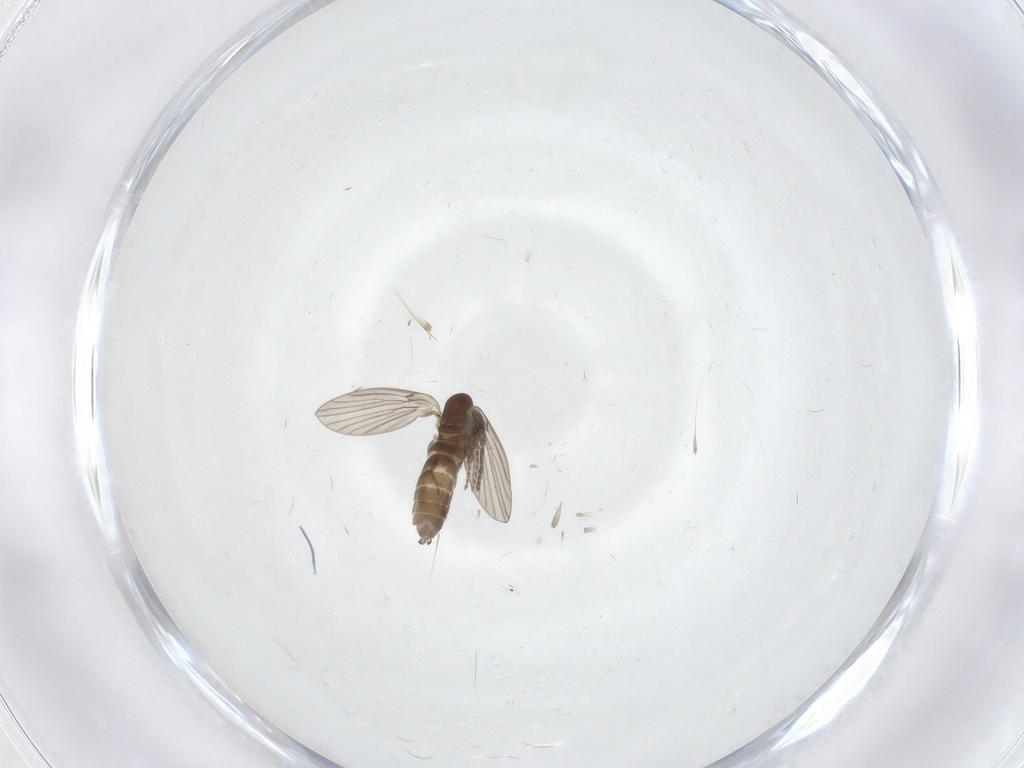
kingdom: Animalia
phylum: Arthropoda
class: Insecta
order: Diptera
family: Psychodidae
